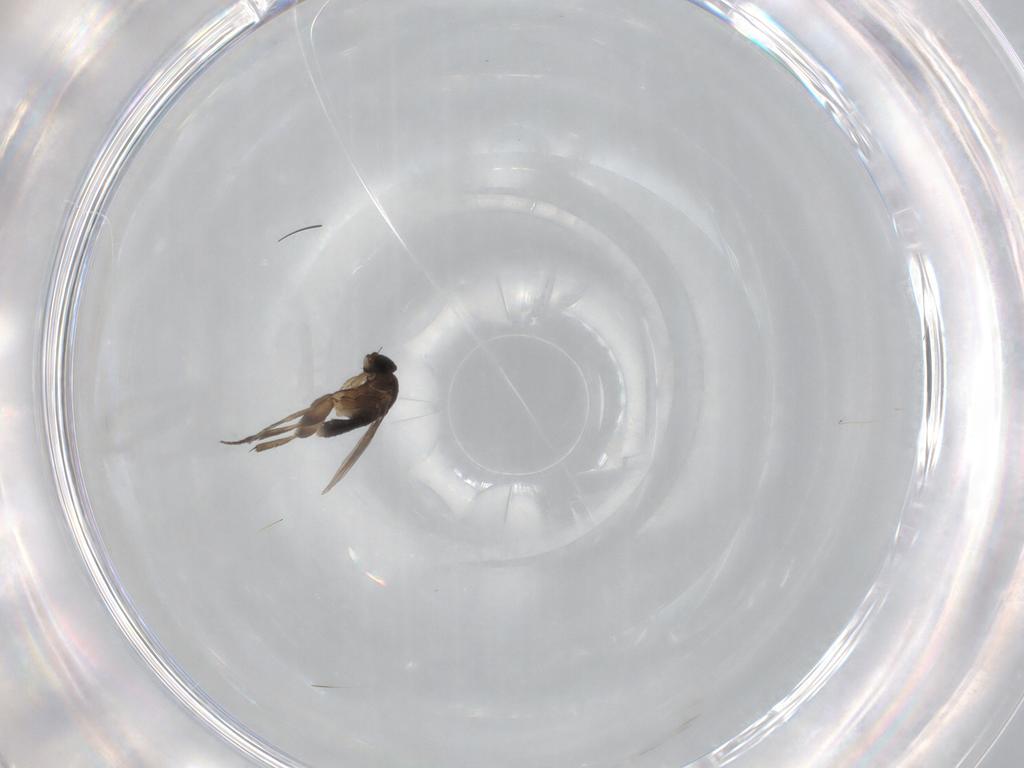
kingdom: Animalia
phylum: Arthropoda
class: Insecta
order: Diptera
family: Phoridae
